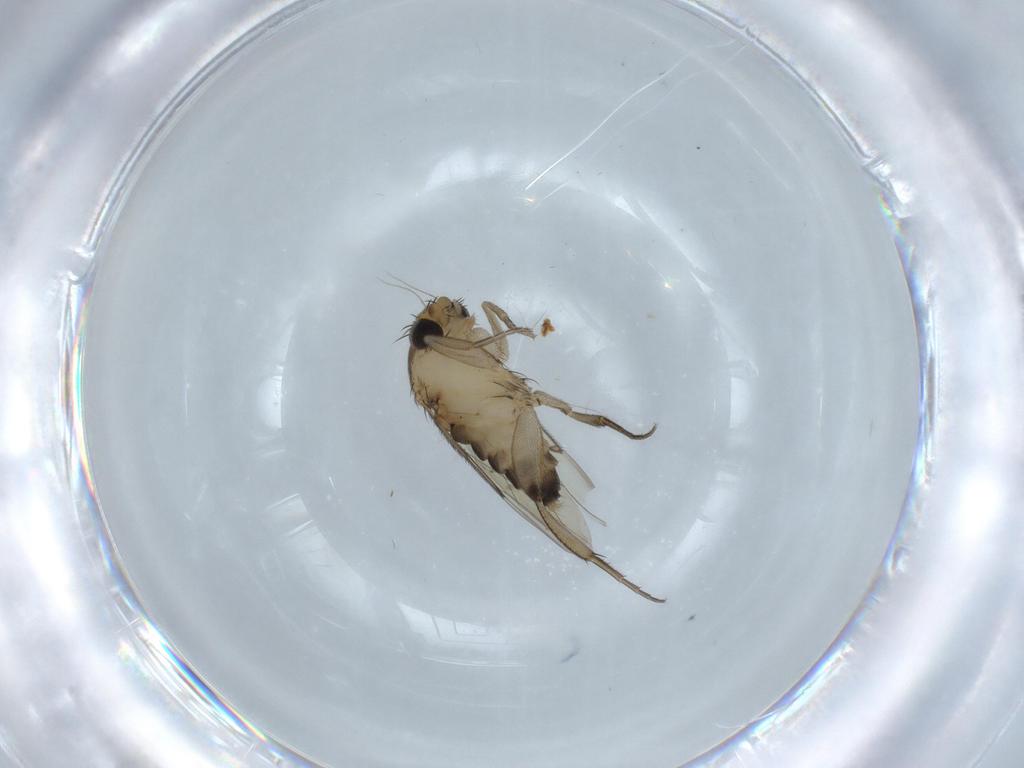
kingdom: Animalia
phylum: Arthropoda
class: Insecta
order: Diptera
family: Phoridae
